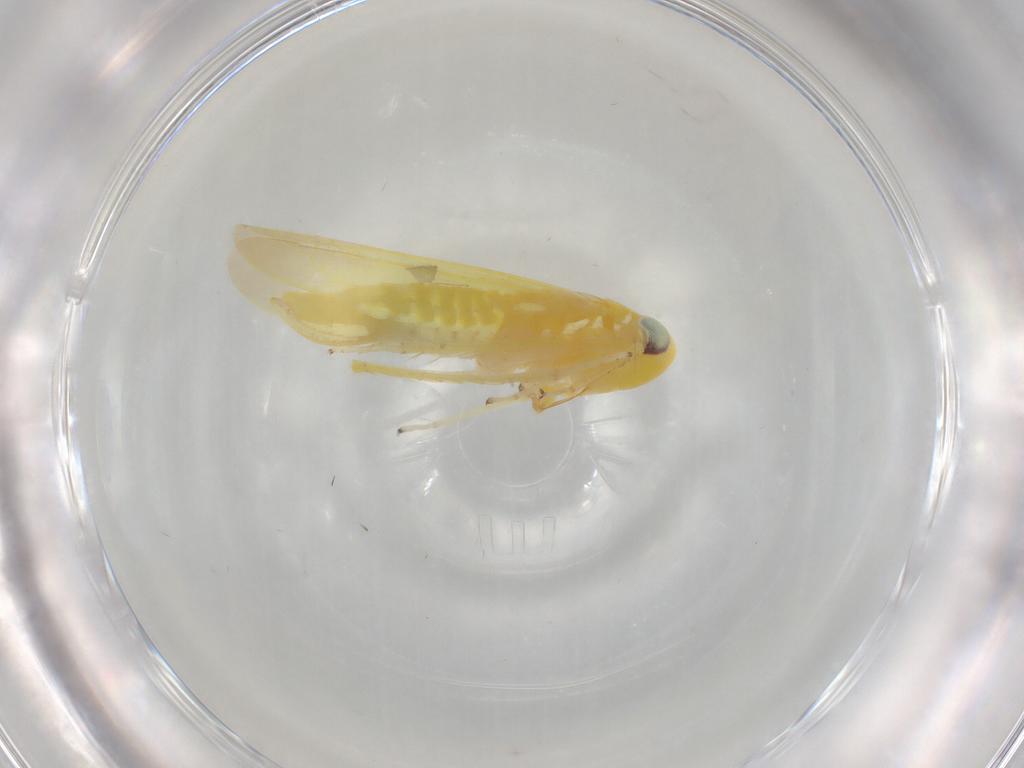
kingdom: Animalia
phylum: Arthropoda
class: Insecta
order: Hemiptera
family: Cicadellidae
